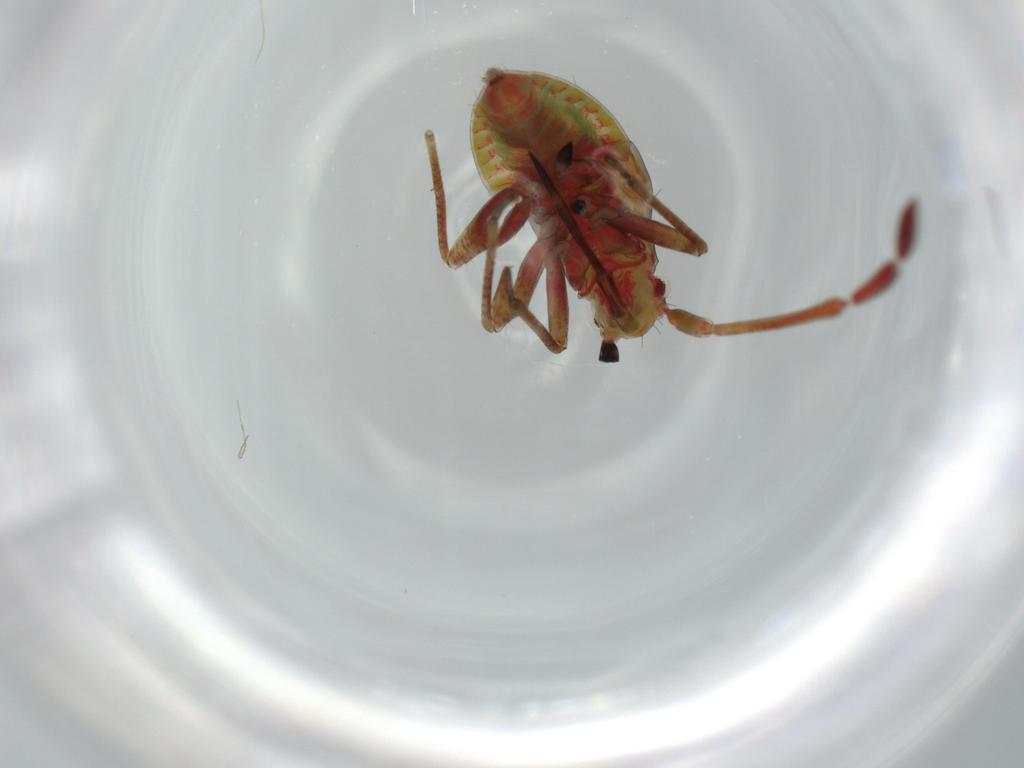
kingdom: Animalia
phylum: Arthropoda
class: Insecta
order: Hemiptera
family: Miridae
